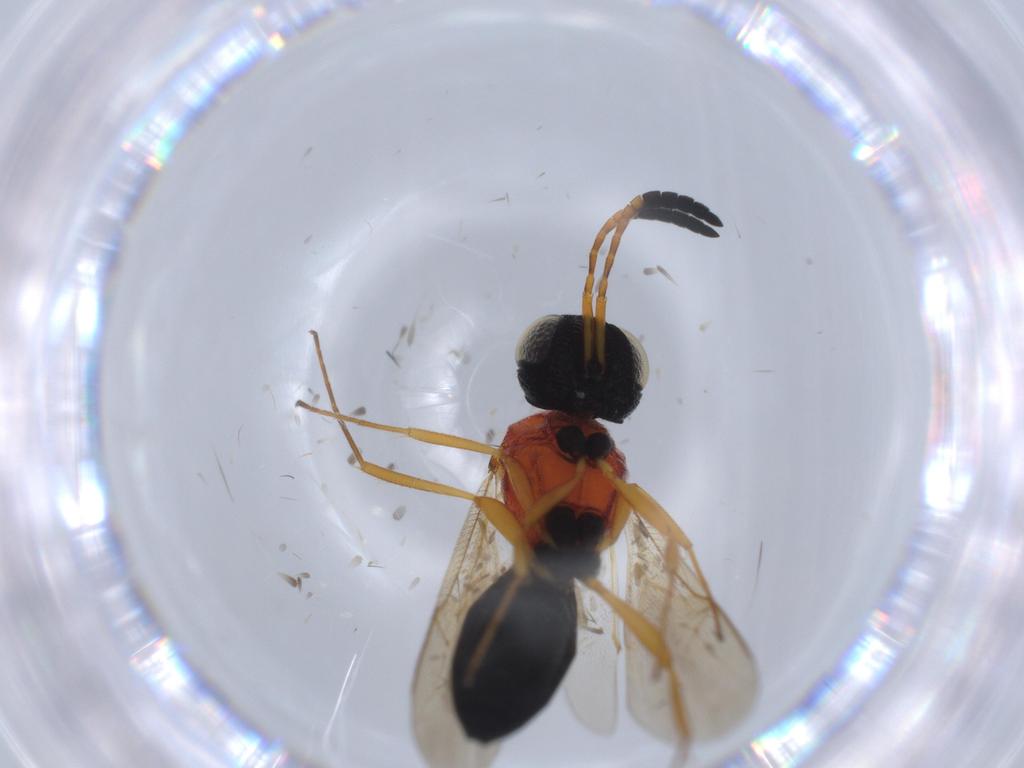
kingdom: Animalia
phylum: Arthropoda
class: Insecta
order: Hymenoptera
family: Scelionidae
